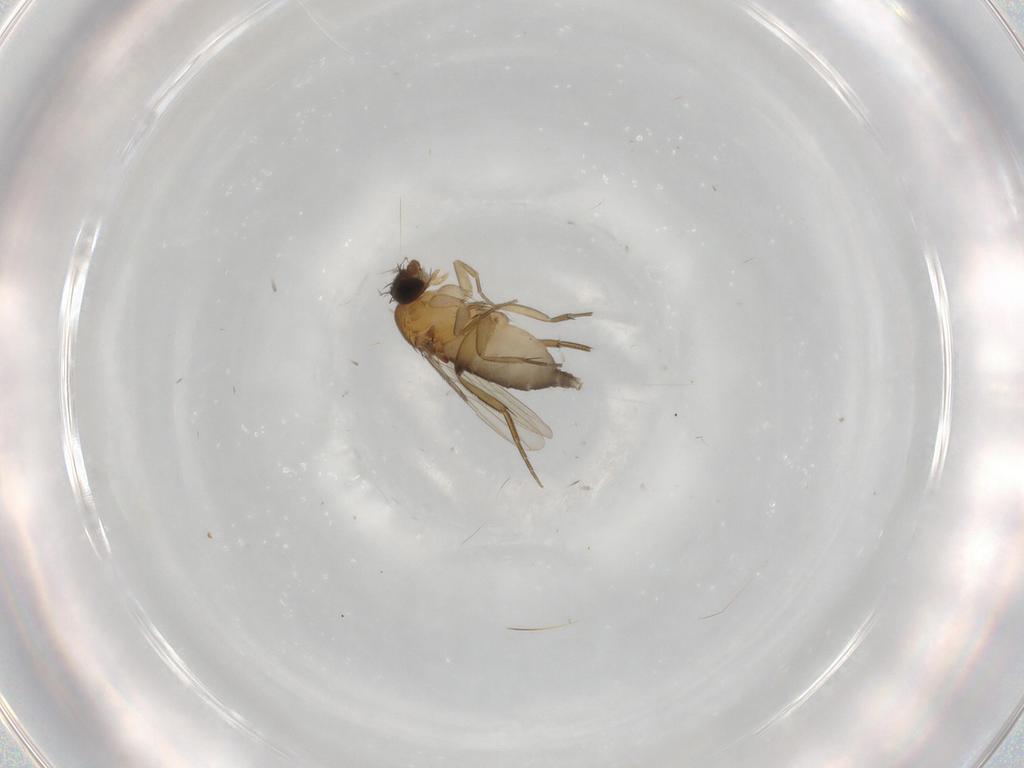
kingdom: Animalia
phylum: Arthropoda
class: Insecta
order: Diptera
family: Phoridae
